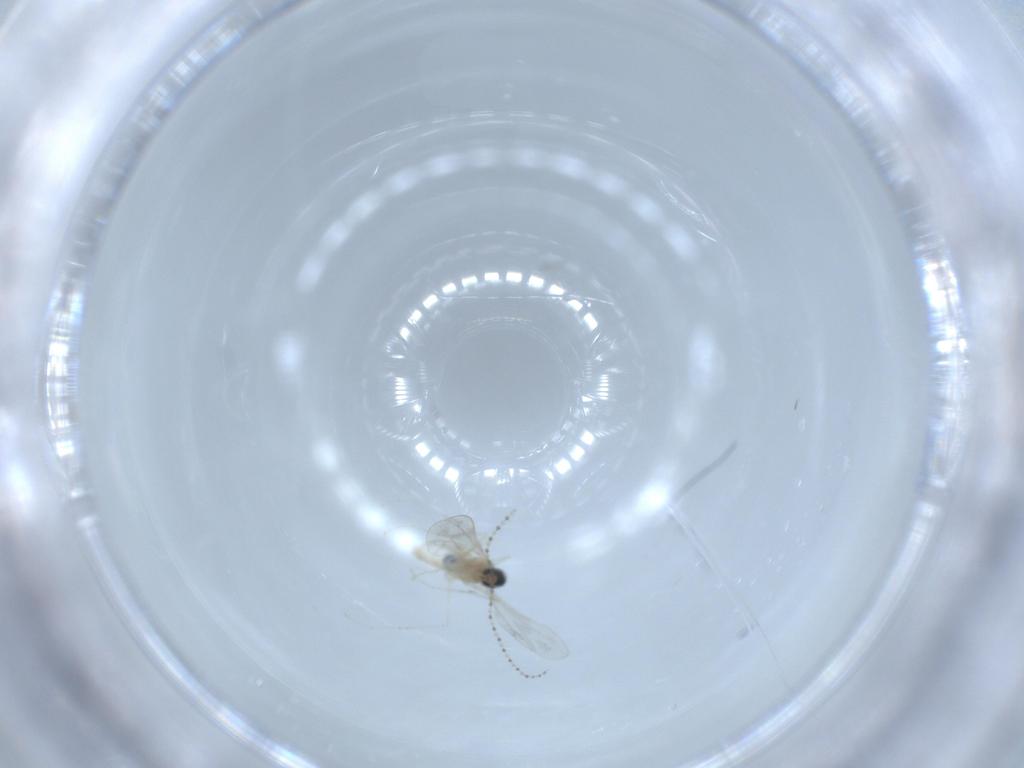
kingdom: Animalia
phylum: Arthropoda
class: Insecta
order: Diptera
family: Cecidomyiidae
